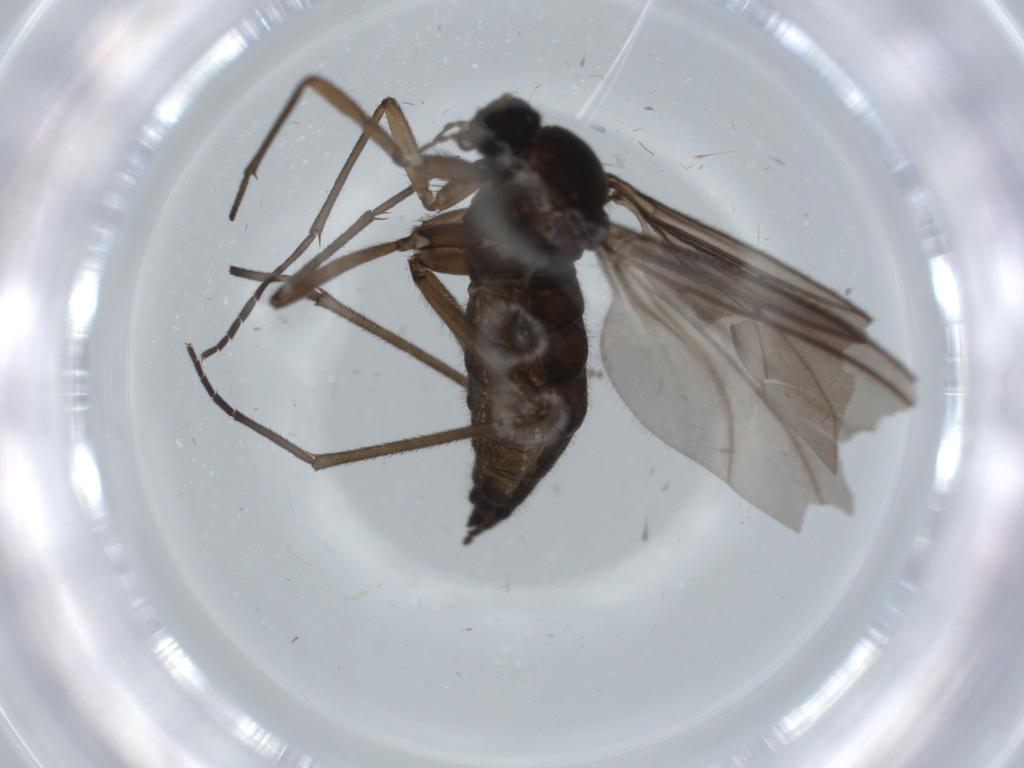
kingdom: Animalia
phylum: Arthropoda
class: Insecta
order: Diptera
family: Sciaridae
